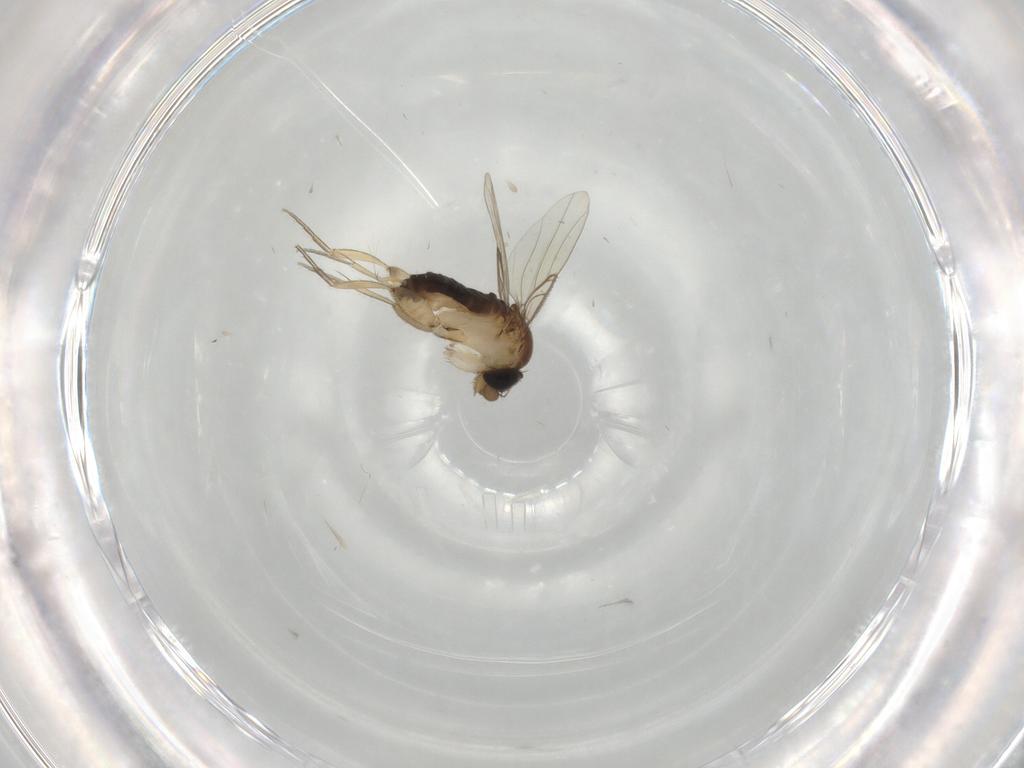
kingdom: Animalia
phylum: Arthropoda
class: Insecta
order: Diptera
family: Phoridae
